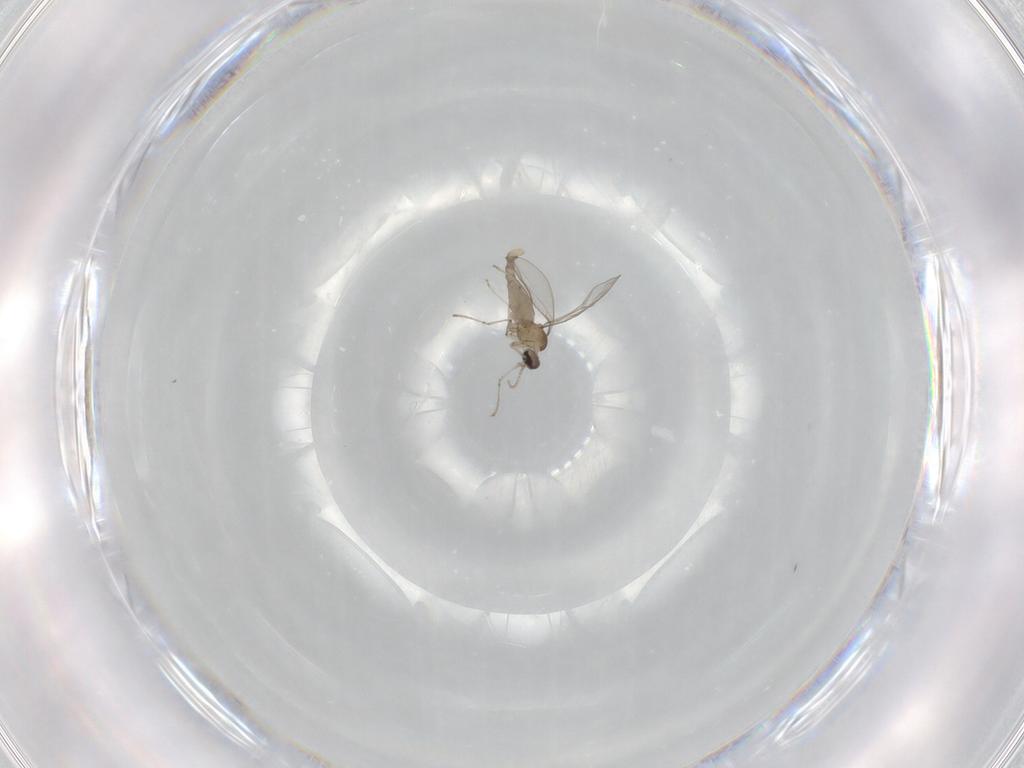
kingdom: Animalia
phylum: Arthropoda
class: Insecta
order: Diptera
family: Cecidomyiidae
